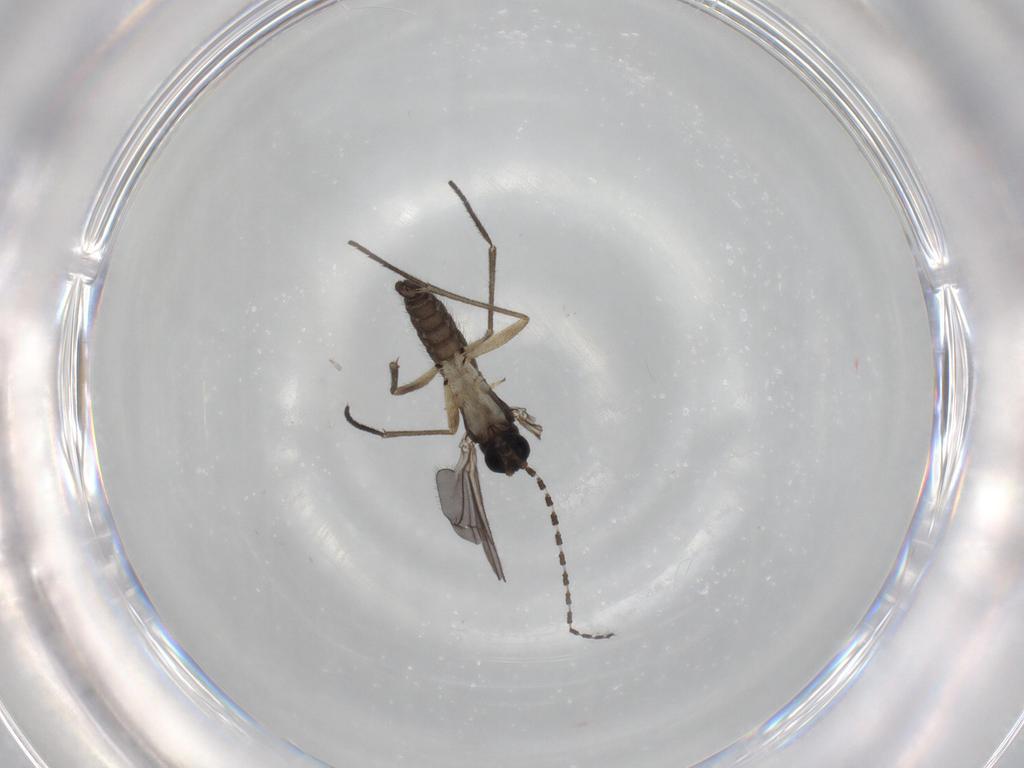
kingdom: Animalia
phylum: Arthropoda
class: Insecta
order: Diptera
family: Sciaridae
